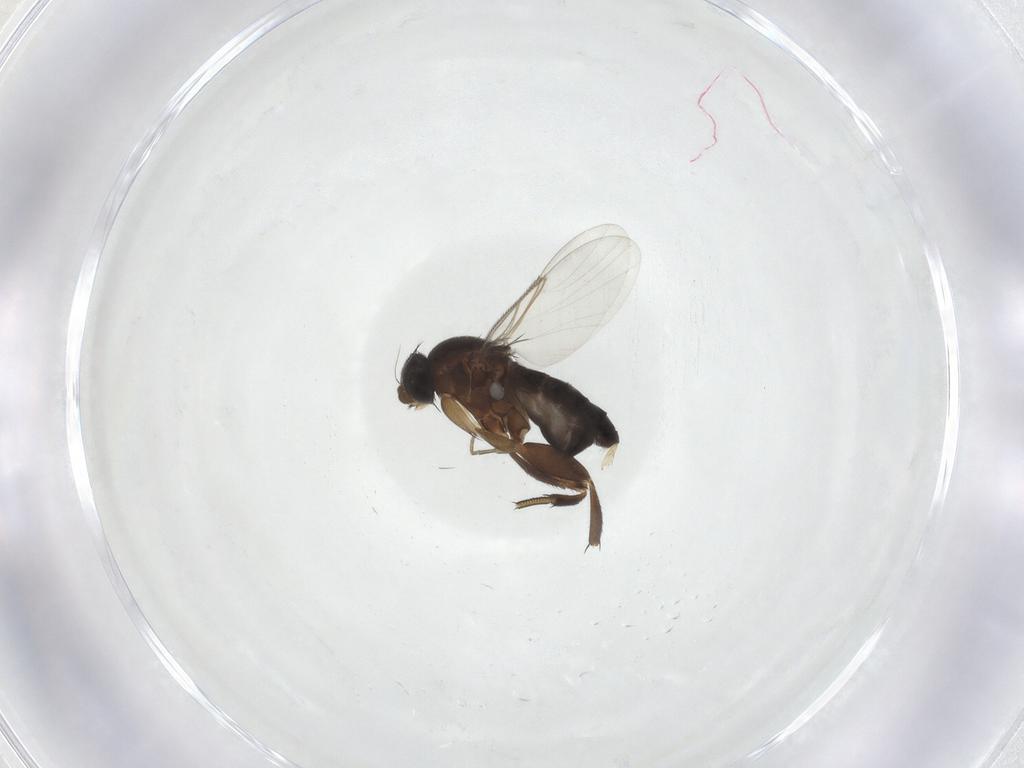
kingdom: Animalia
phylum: Arthropoda
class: Insecta
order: Diptera
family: Phoridae
